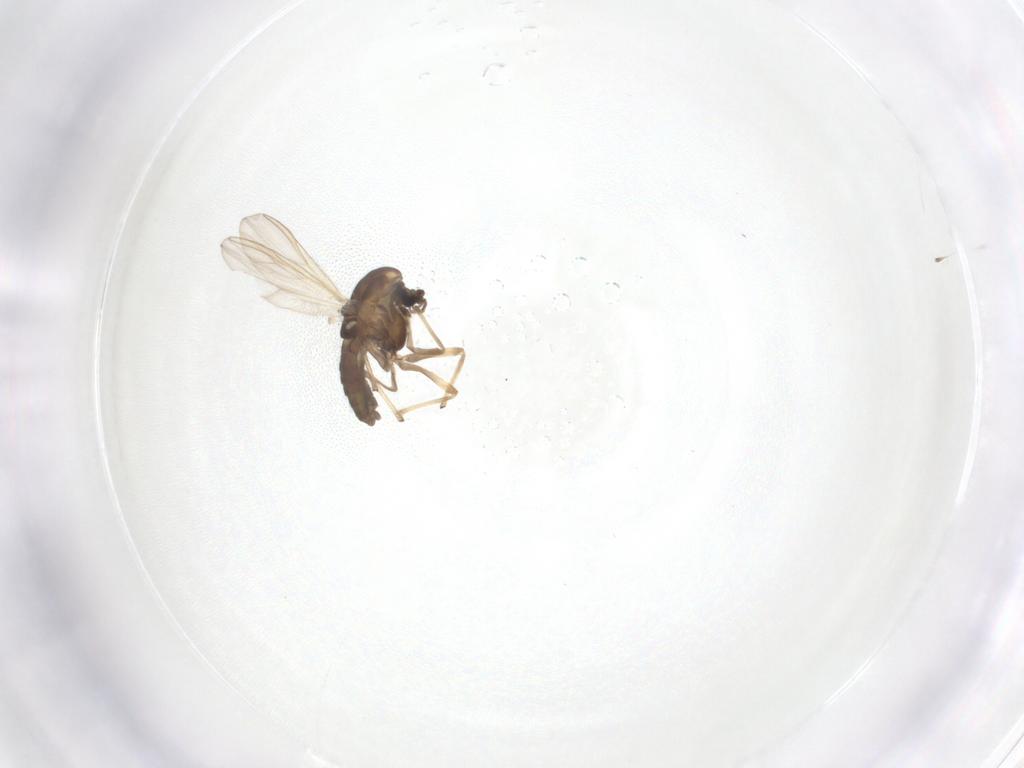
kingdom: Animalia
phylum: Arthropoda
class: Insecta
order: Diptera
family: Chironomidae
